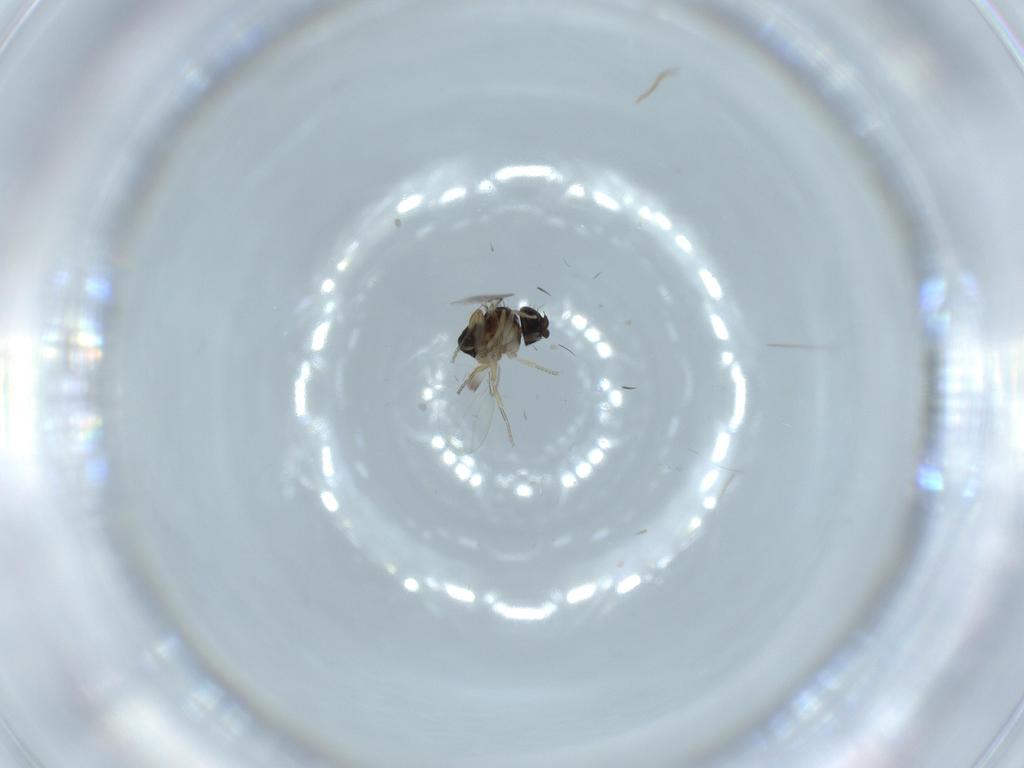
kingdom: Animalia
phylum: Arthropoda
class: Insecta
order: Diptera
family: Phoridae
